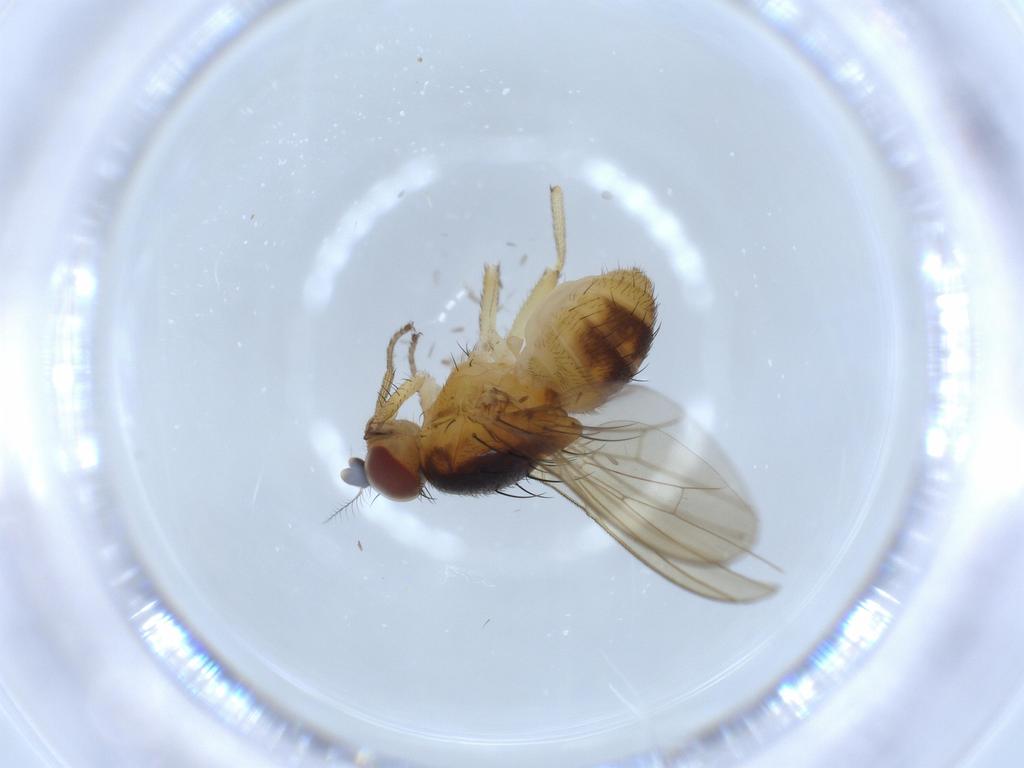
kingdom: Animalia
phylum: Arthropoda
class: Insecta
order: Diptera
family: Lauxaniidae
